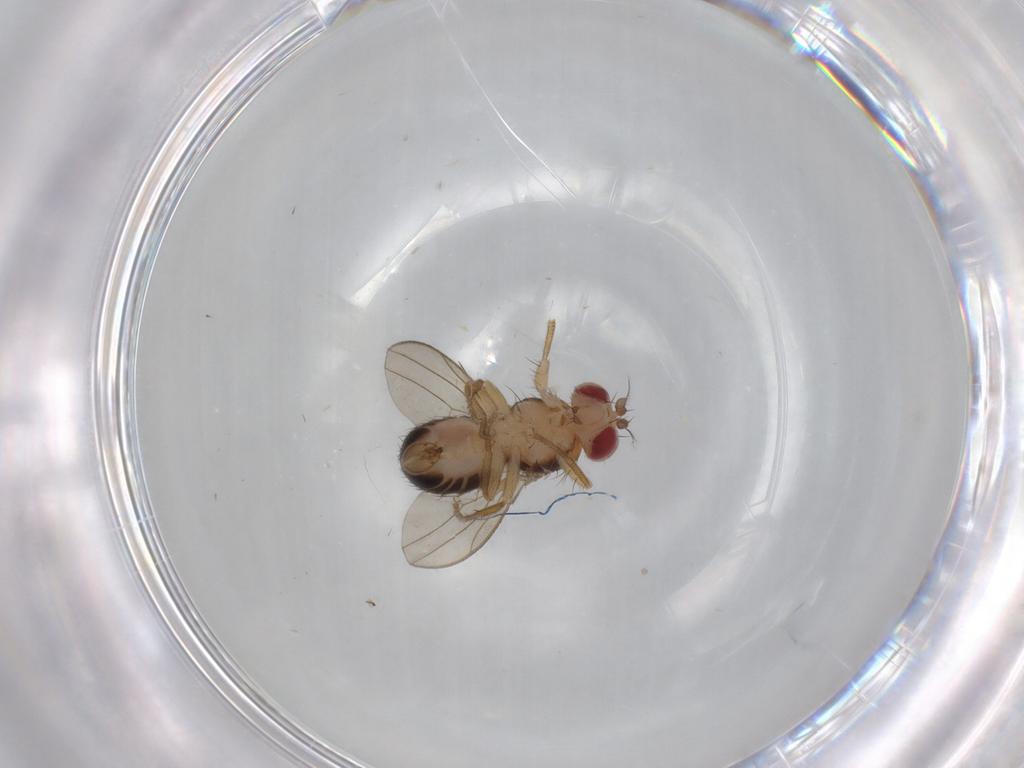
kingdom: Animalia
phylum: Arthropoda
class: Insecta
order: Diptera
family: Drosophilidae
